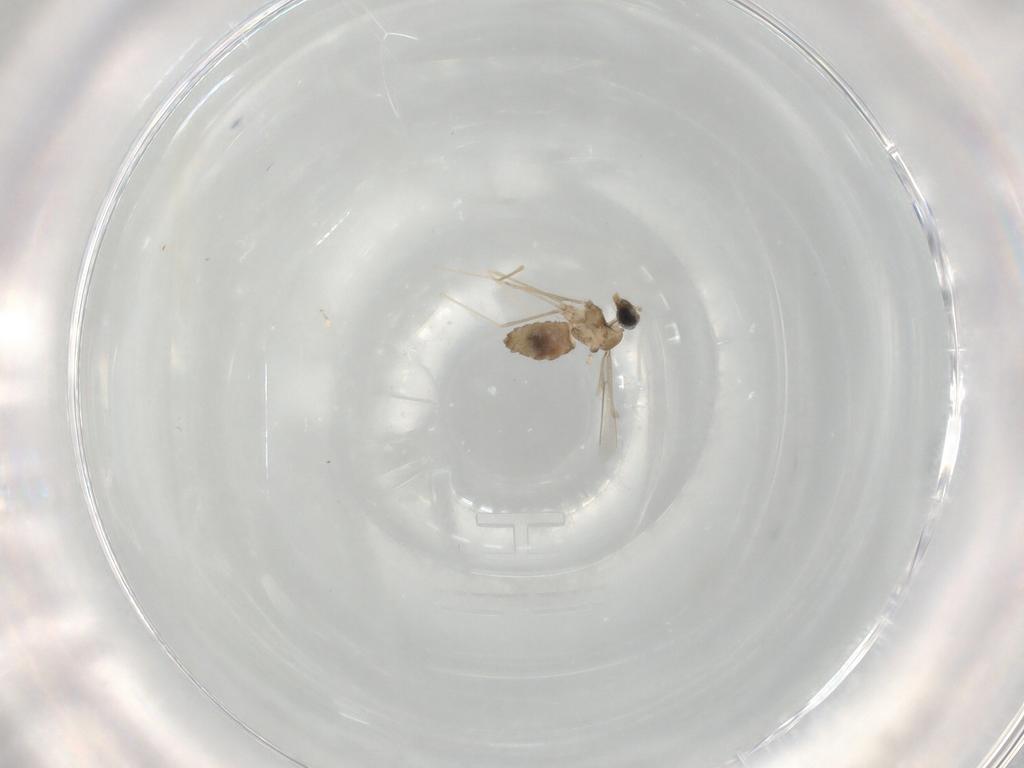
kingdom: Animalia
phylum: Arthropoda
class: Insecta
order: Diptera
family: Cecidomyiidae
